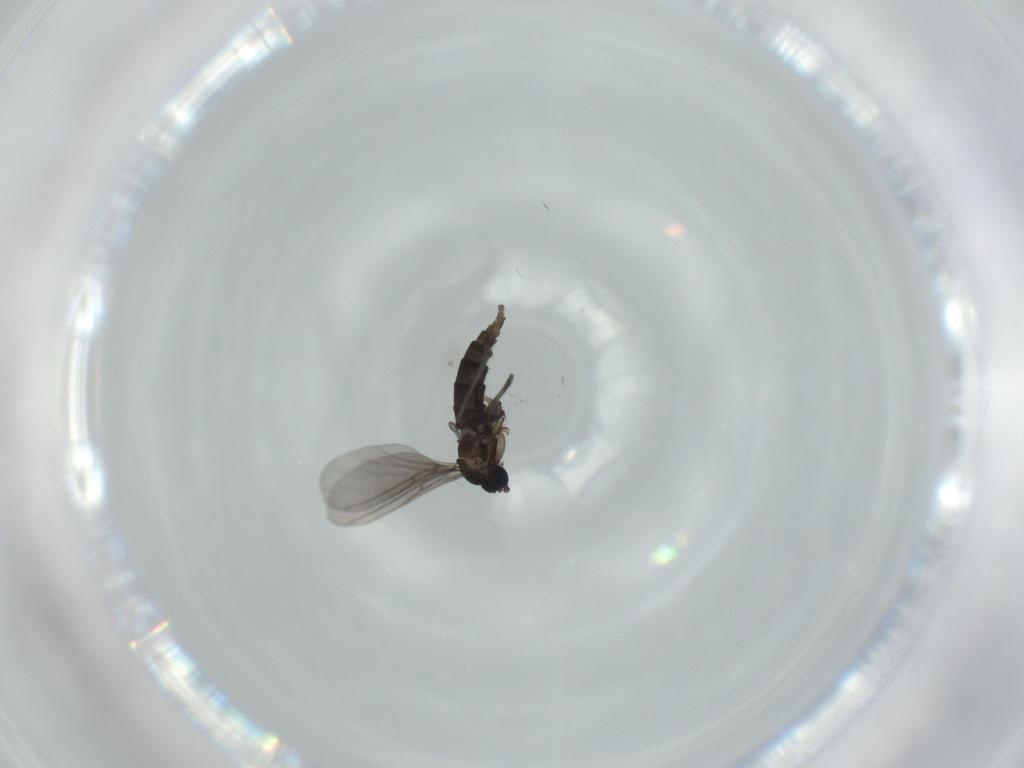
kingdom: Animalia
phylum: Arthropoda
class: Insecta
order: Diptera
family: Sciaridae
